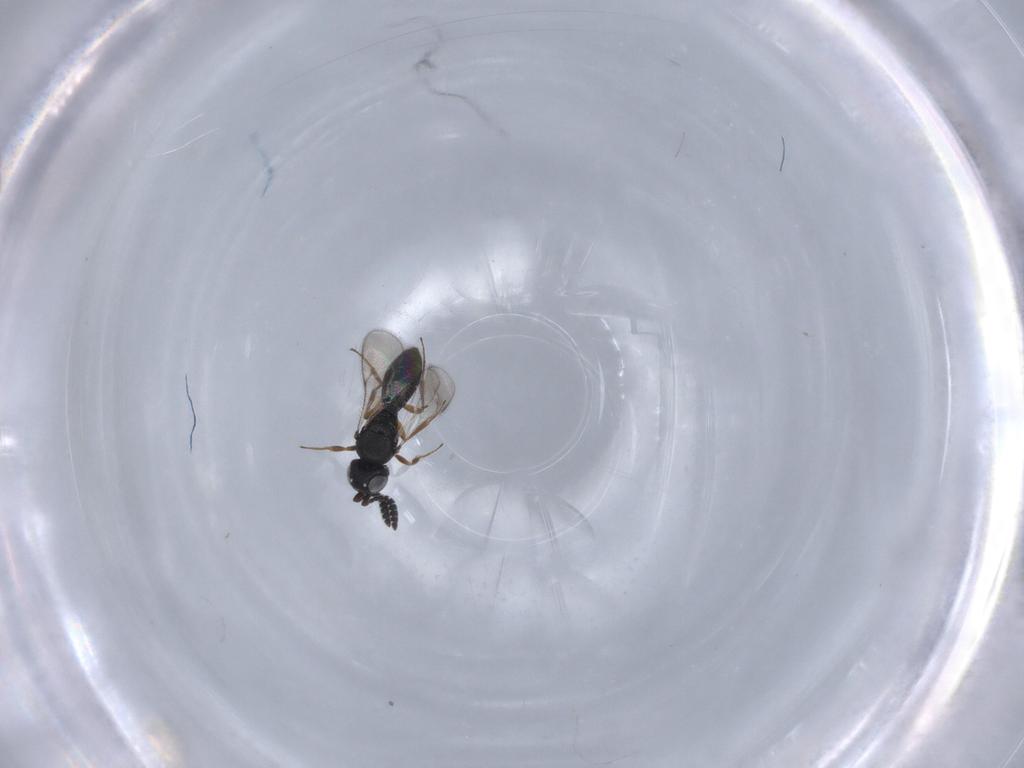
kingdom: Animalia
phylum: Arthropoda
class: Insecta
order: Hymenoptera
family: Scelionidae
